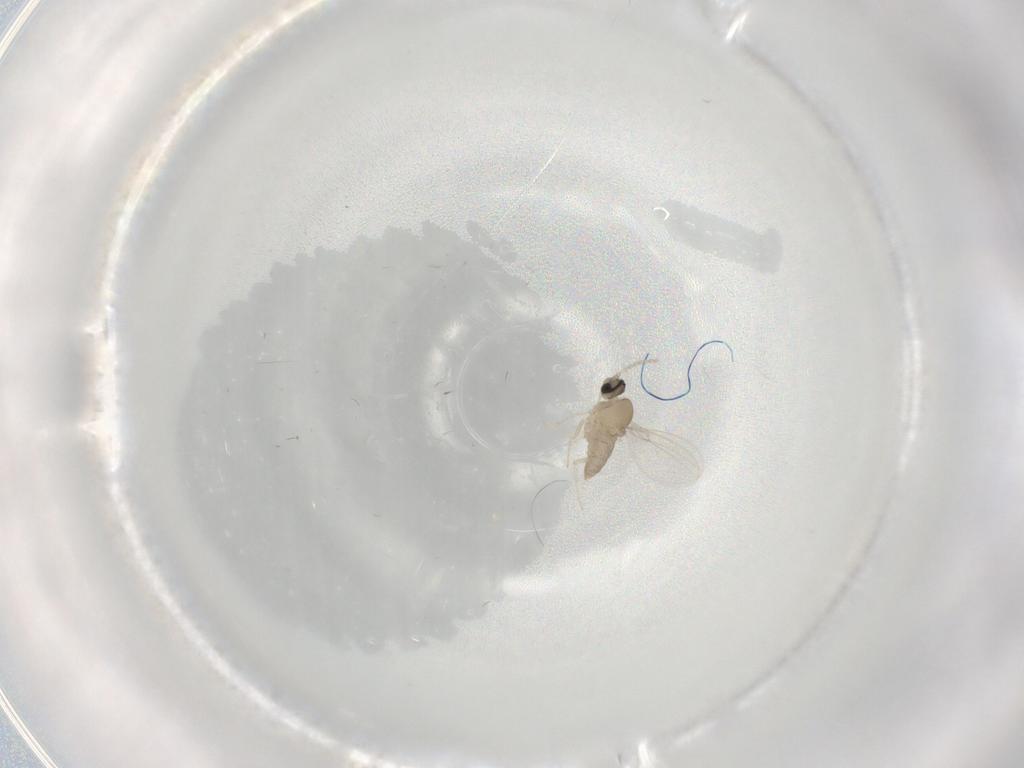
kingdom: Animalia
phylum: Arthropoda
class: Insecta
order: Diptera
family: Cecidomyiidae
